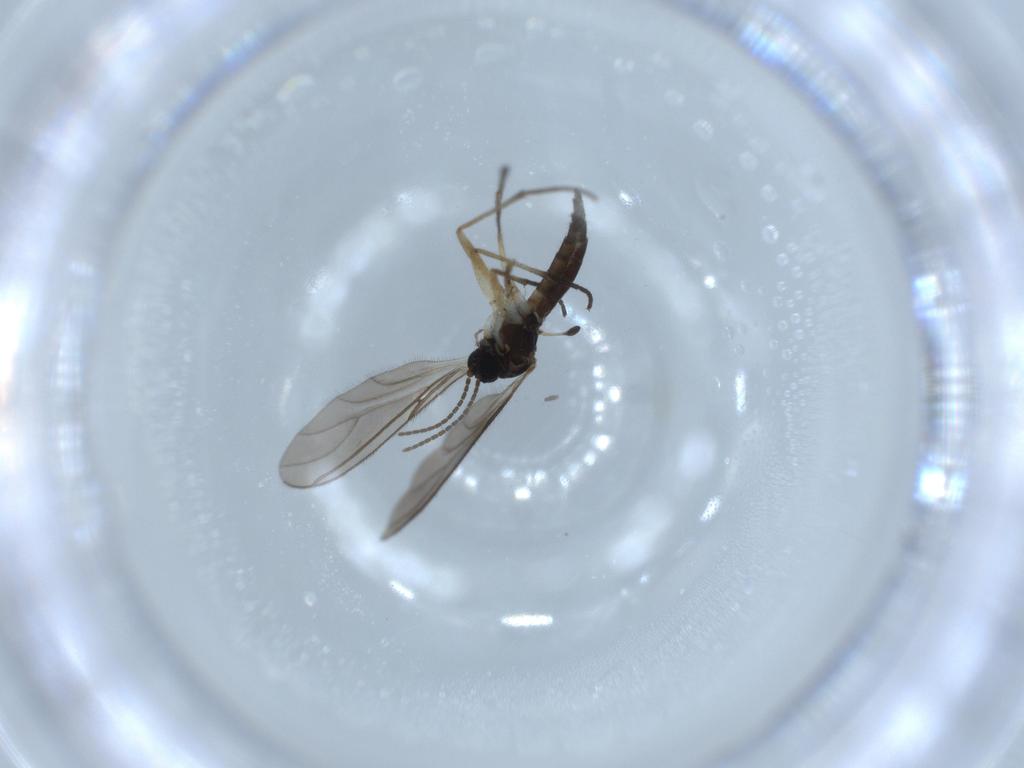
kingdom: Animalia
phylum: Arthropoda
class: Insecta
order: Diptera
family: Sciaridae
